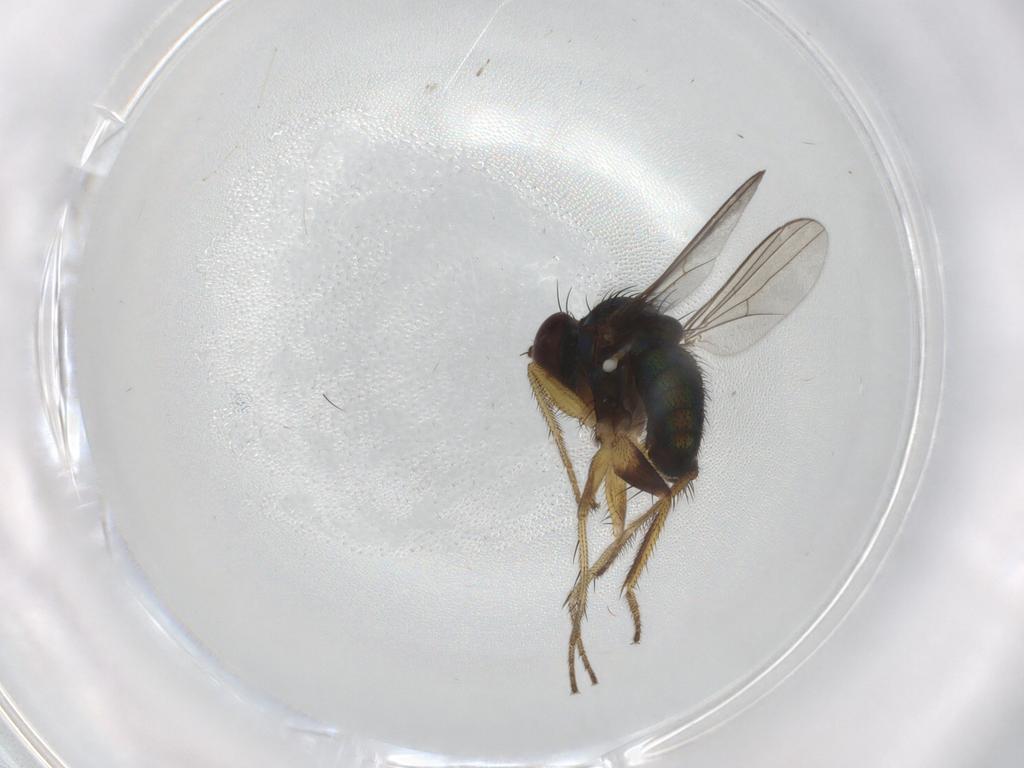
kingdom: Animalia
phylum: Arthropoda
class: Insecta
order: Diptera
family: Dolichopodidae
